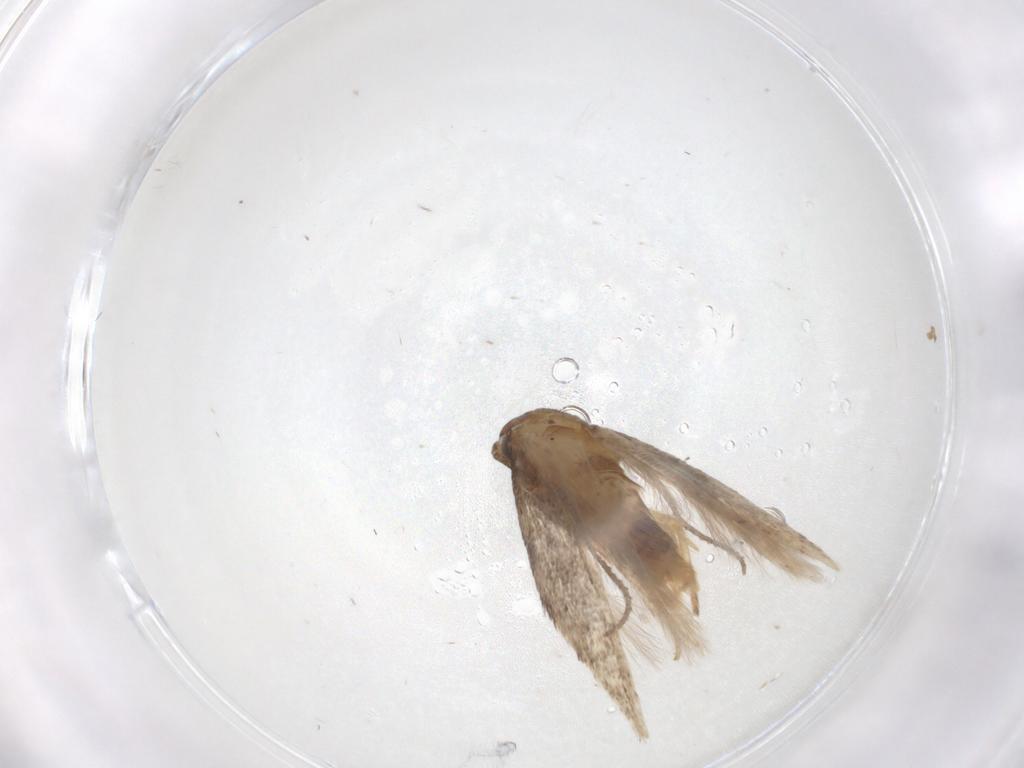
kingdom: Animalia
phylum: Arthropoda
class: Insecta
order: Lepidoptera
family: Gelechiidae
